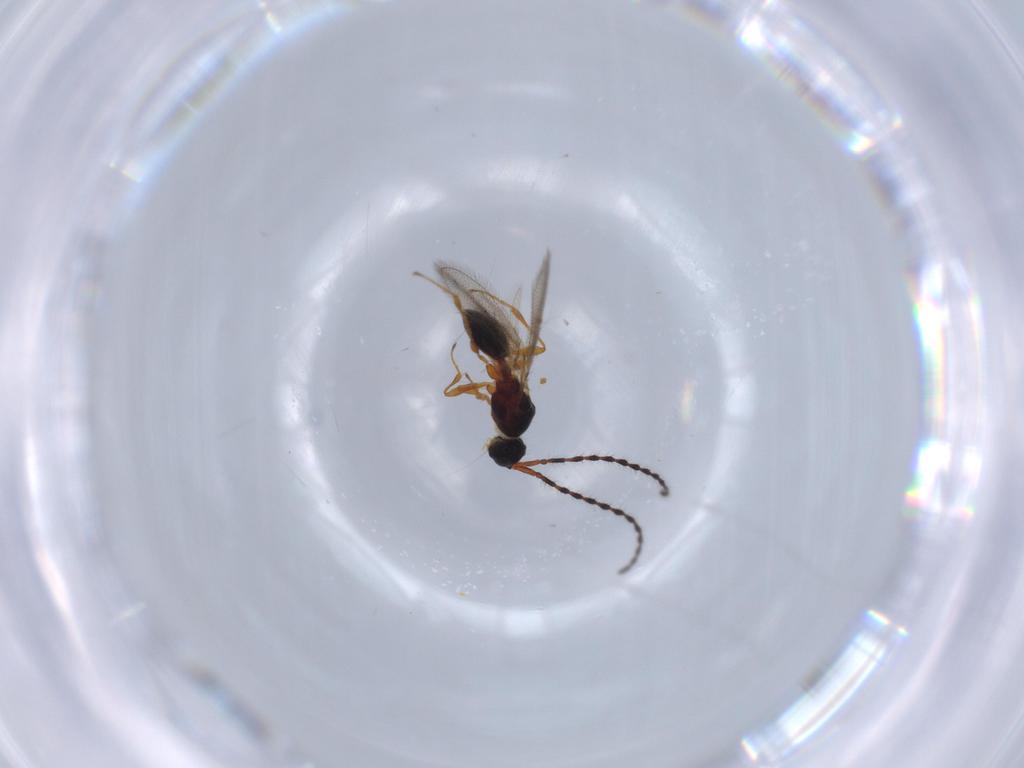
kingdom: Animalia
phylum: Arthropoda
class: Insecta
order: Hymenoptera
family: Diapriidae
